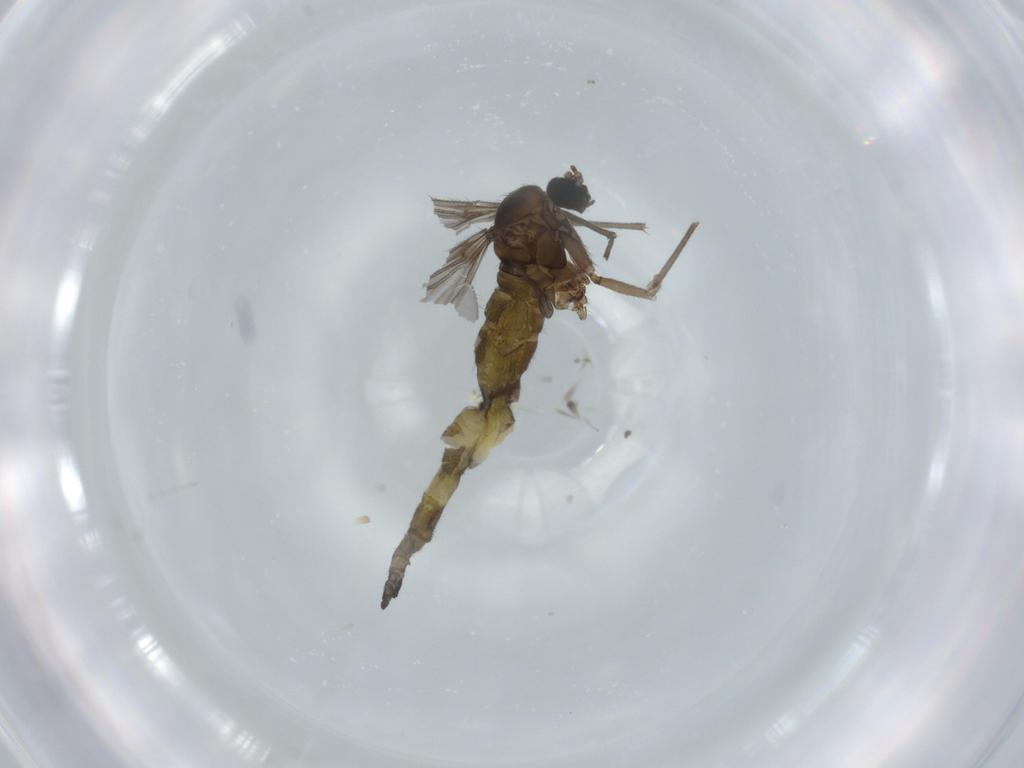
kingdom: Animalia
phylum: Arthropoda
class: Insecta
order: Diptera
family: Sciaridae
